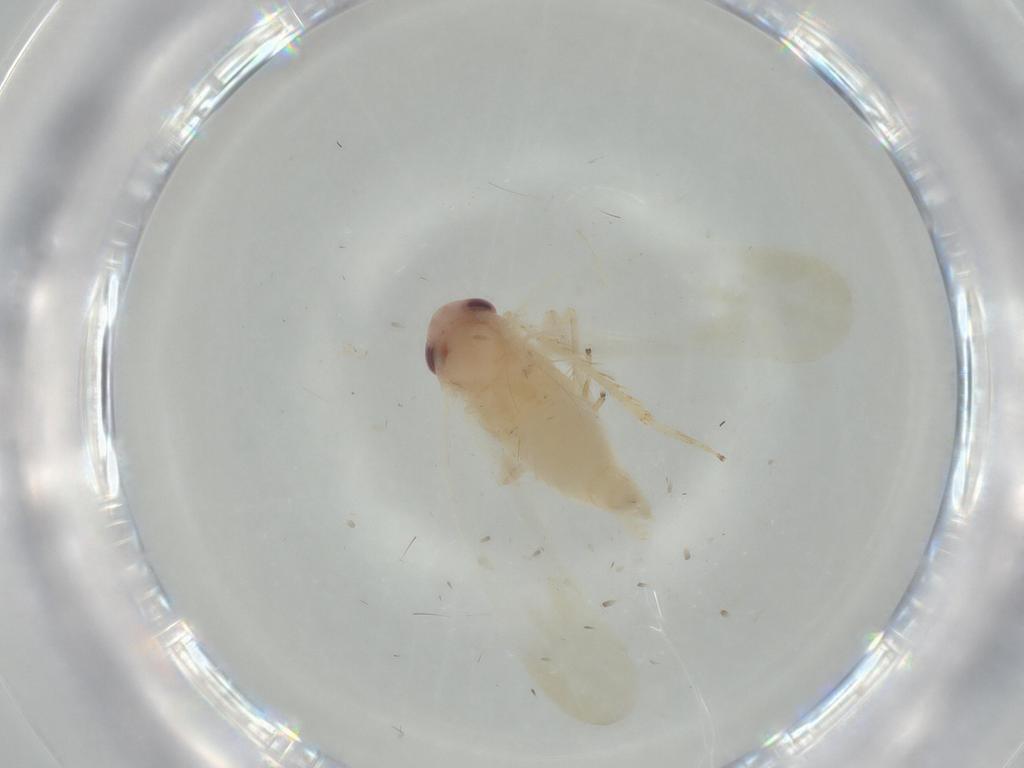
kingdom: Animalia
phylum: Arthropoda
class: Insecta
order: Hemiptera
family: Cicadellidae
